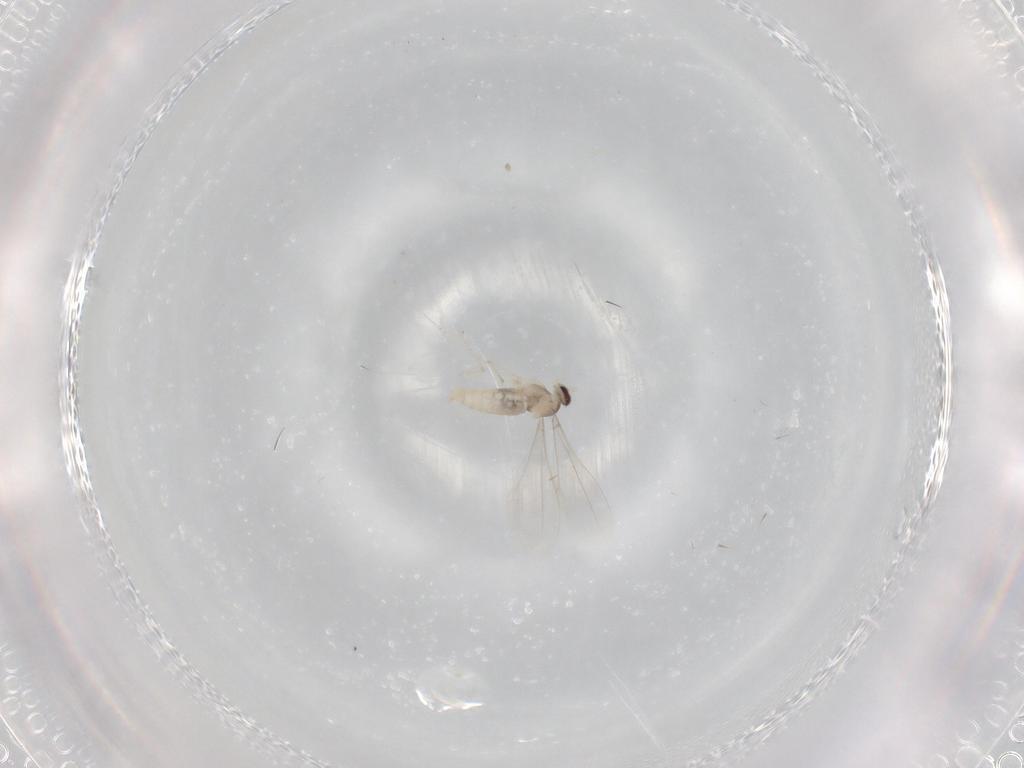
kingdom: Animalia
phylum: Arthropoda
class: Insecta
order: Diptera
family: Cecidomyiidae
